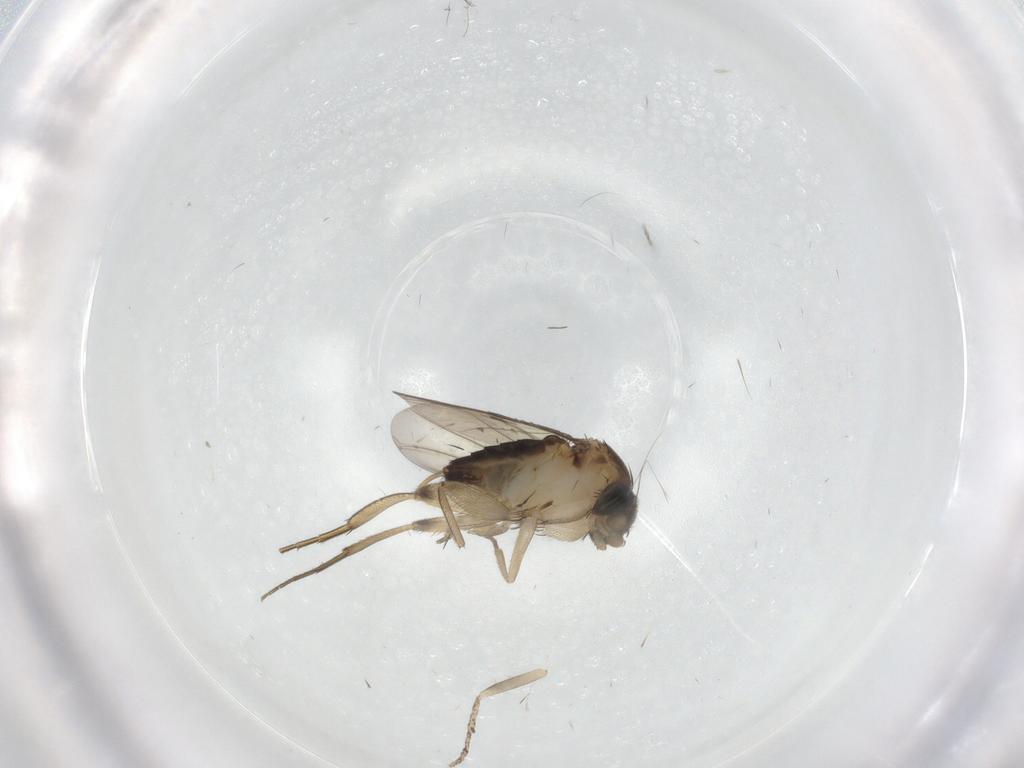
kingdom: Animalia
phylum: Arthropoda
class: Insecta
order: Diptera
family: Phoridae
